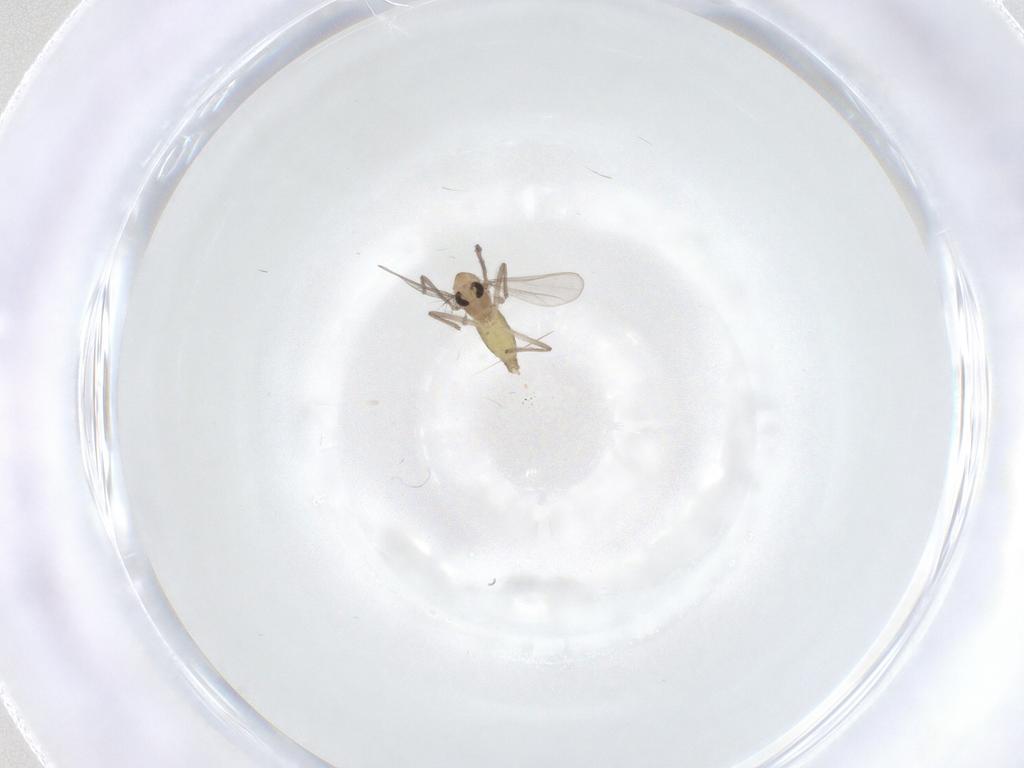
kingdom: Animalia
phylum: Arthropoda
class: Insecta
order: Diptera
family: Chironomidae
